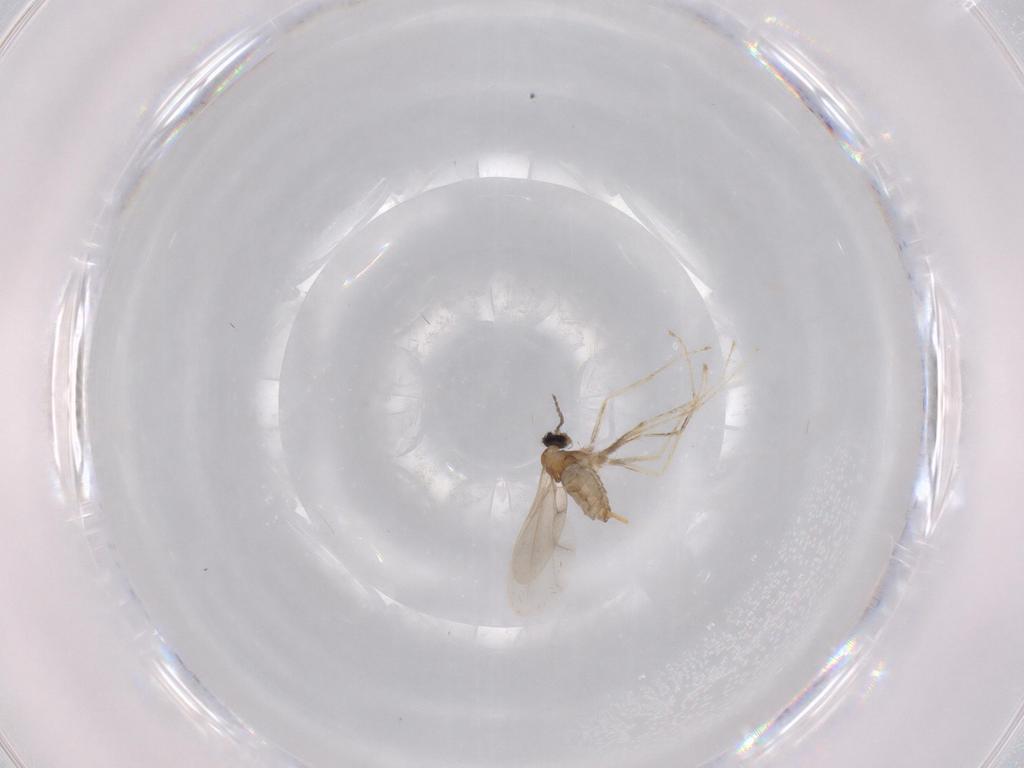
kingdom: Animalia
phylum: Arthropoda
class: Insecta
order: Diptera
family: Cecidomyiidae
